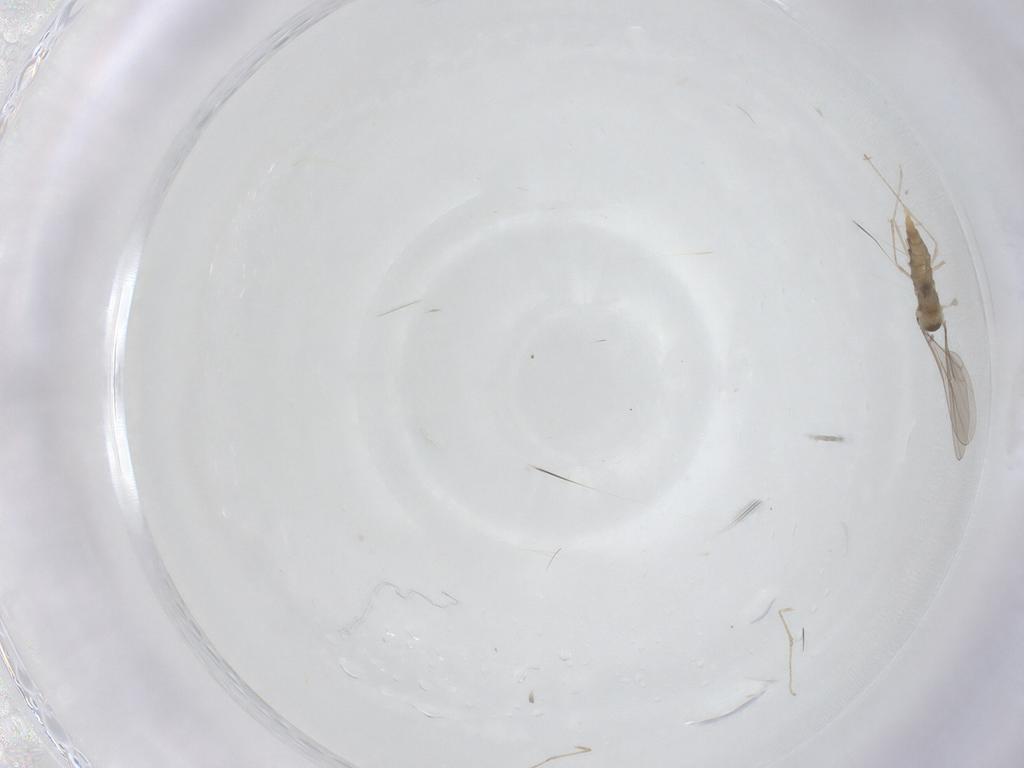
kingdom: Animalia
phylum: Arthropoda
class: Insecta
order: Diptera
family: Cecidomyiidae
